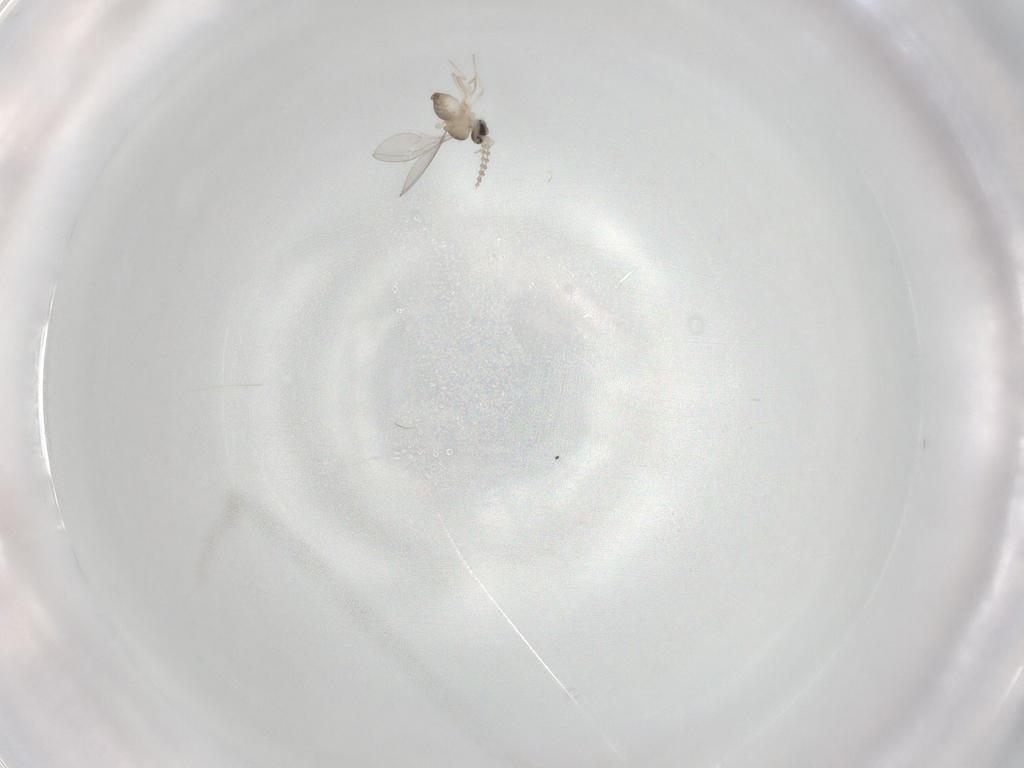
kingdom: Animalia
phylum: Arthropoda
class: Insecta
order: Diptera
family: Cecidomyiidae
